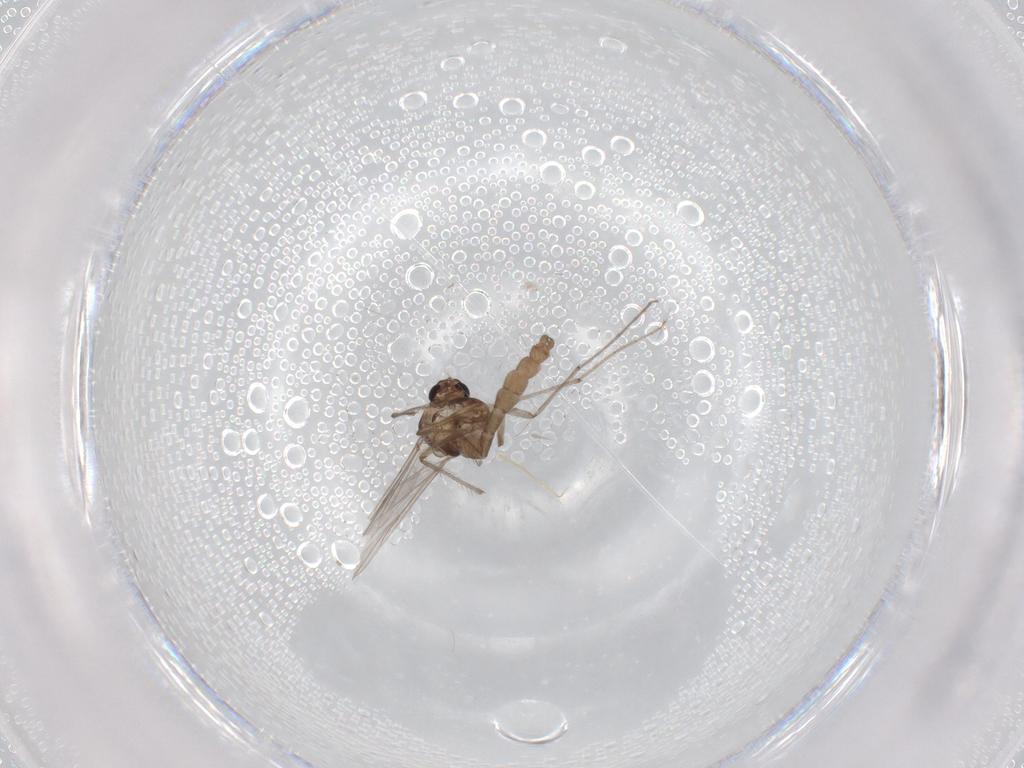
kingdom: Animalia
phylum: Arthropoda
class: Insecta
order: Diptera
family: Chironomidae
